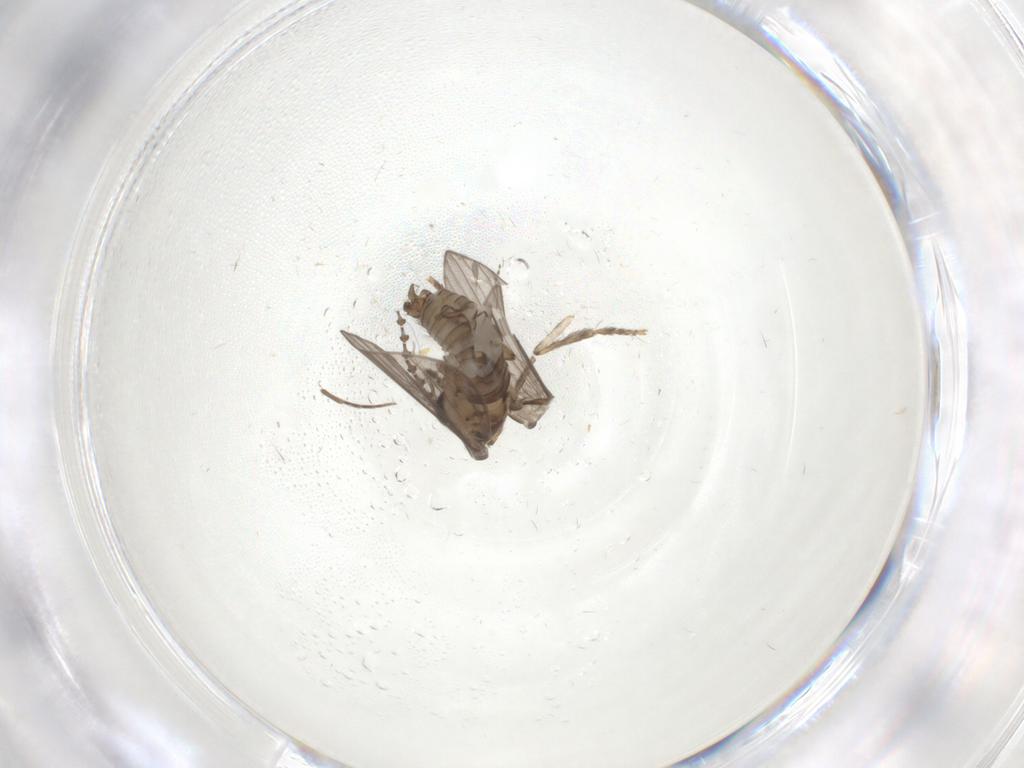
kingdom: Animalia
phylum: Arthropoda
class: Insecta
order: Diptera
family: Psychodidae
